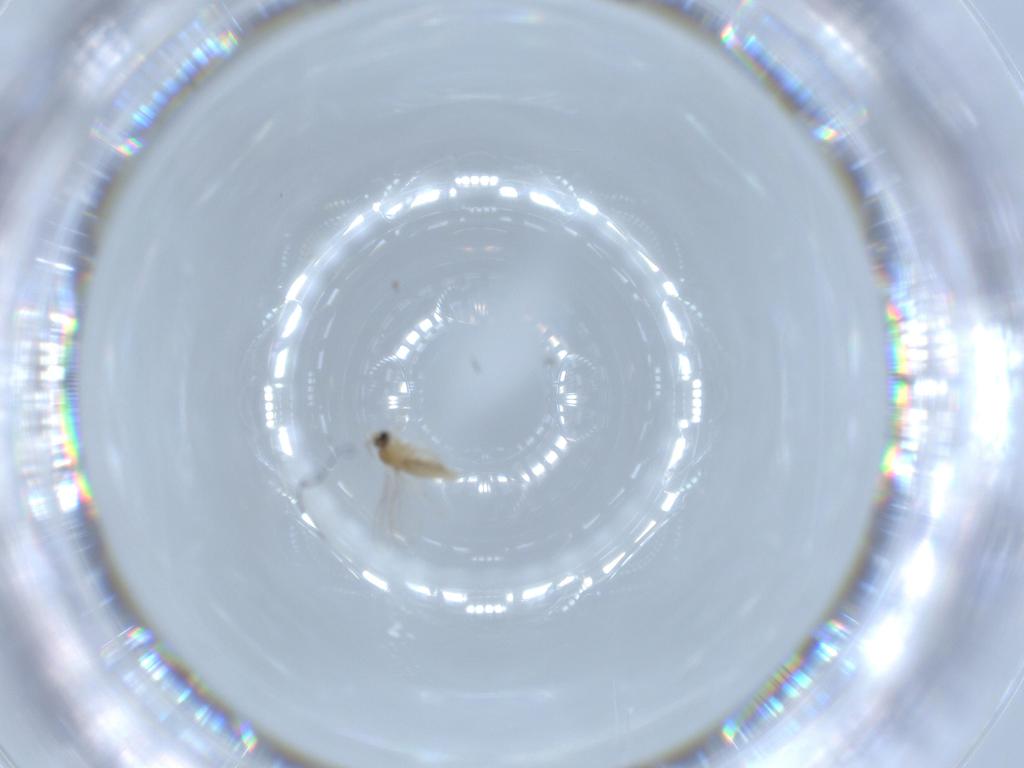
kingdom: Animalia
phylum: Arthropoda
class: Insecta
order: Diptera
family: Cecidomyiidae
